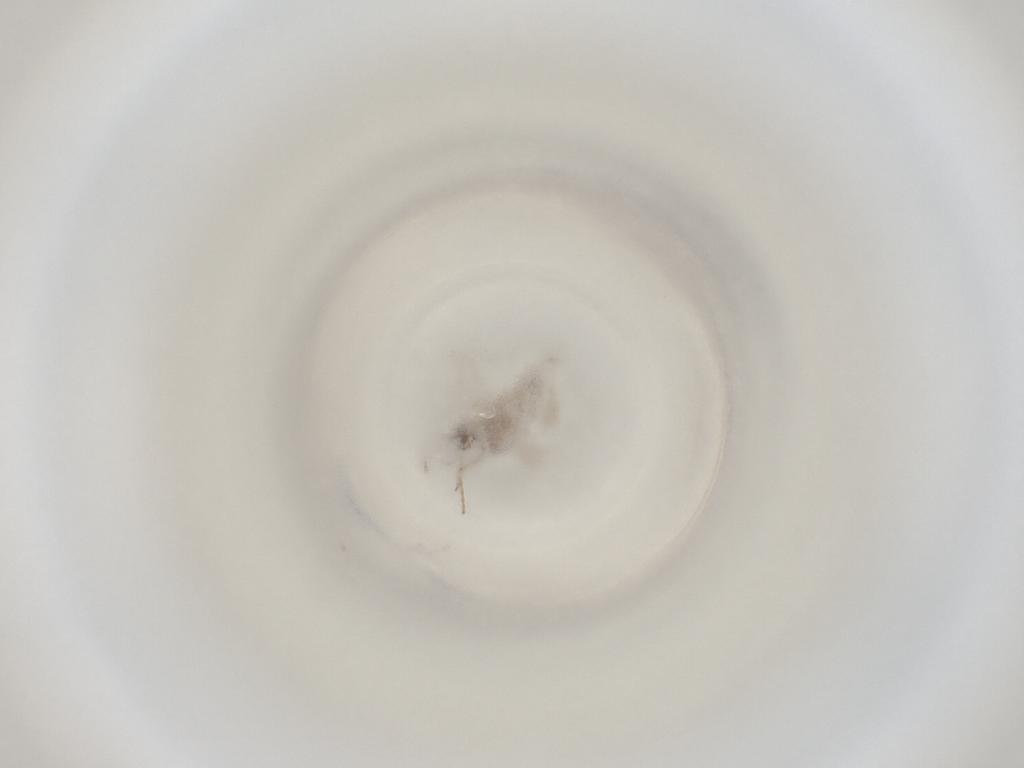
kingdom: Animalia
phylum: Arthropoda
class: Insecta
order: Diptera
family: Cecidomyiidae
